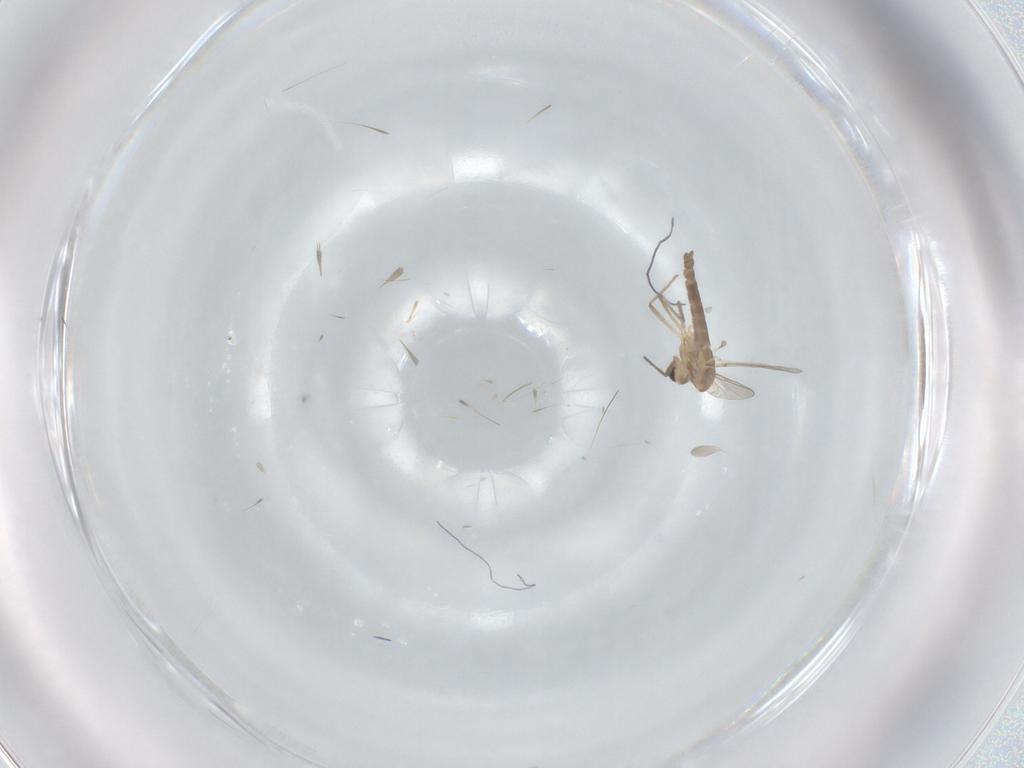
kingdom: Animalia
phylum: Arthropoda
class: Insecta
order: Diptera
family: Chironomidae
